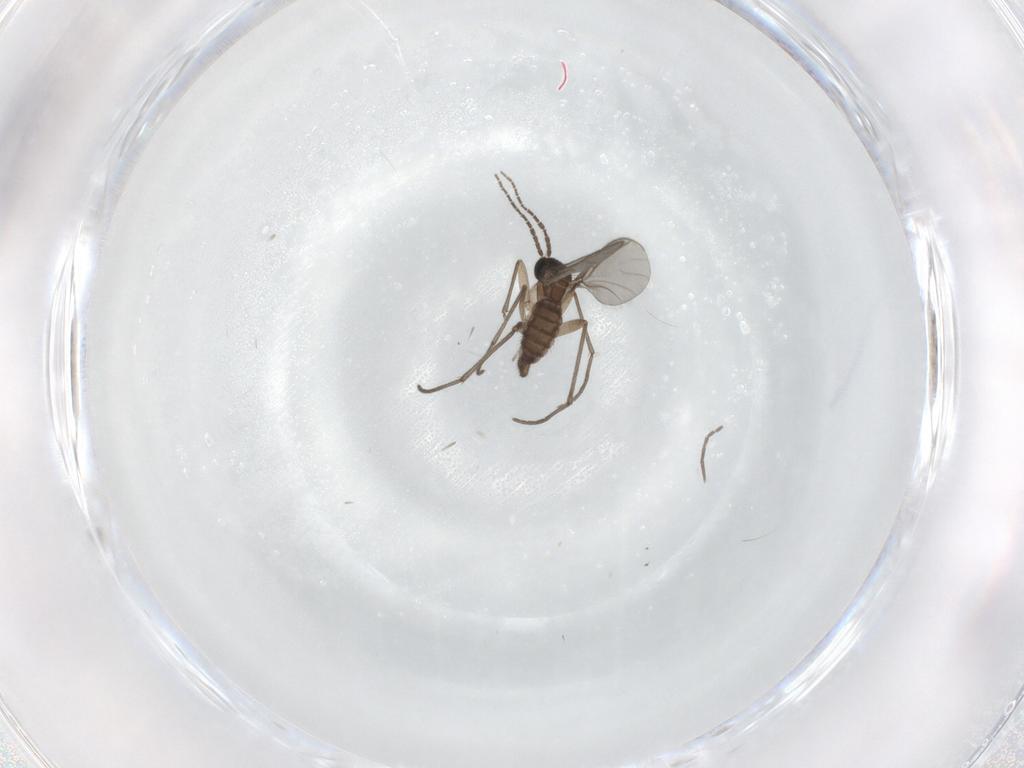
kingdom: Animalia
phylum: Arthropoda
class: Insecta
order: Diptera
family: Sciaridae
